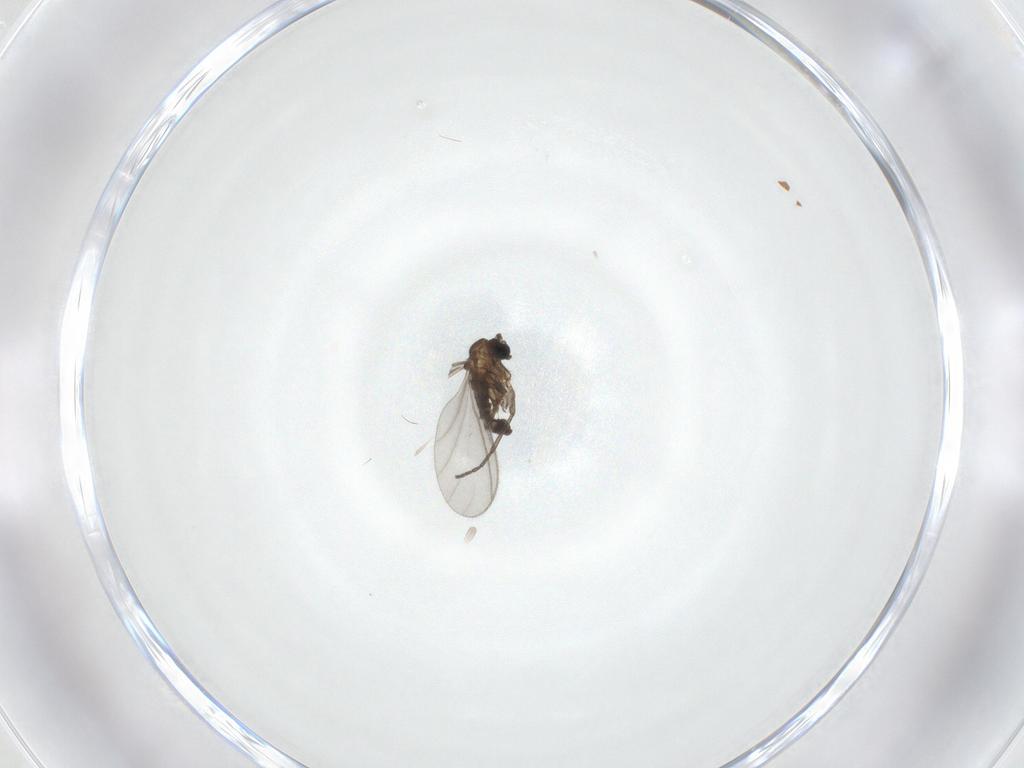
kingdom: Animalia
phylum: Arthropoda
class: Insecta
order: Diptera
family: Sciaridae
